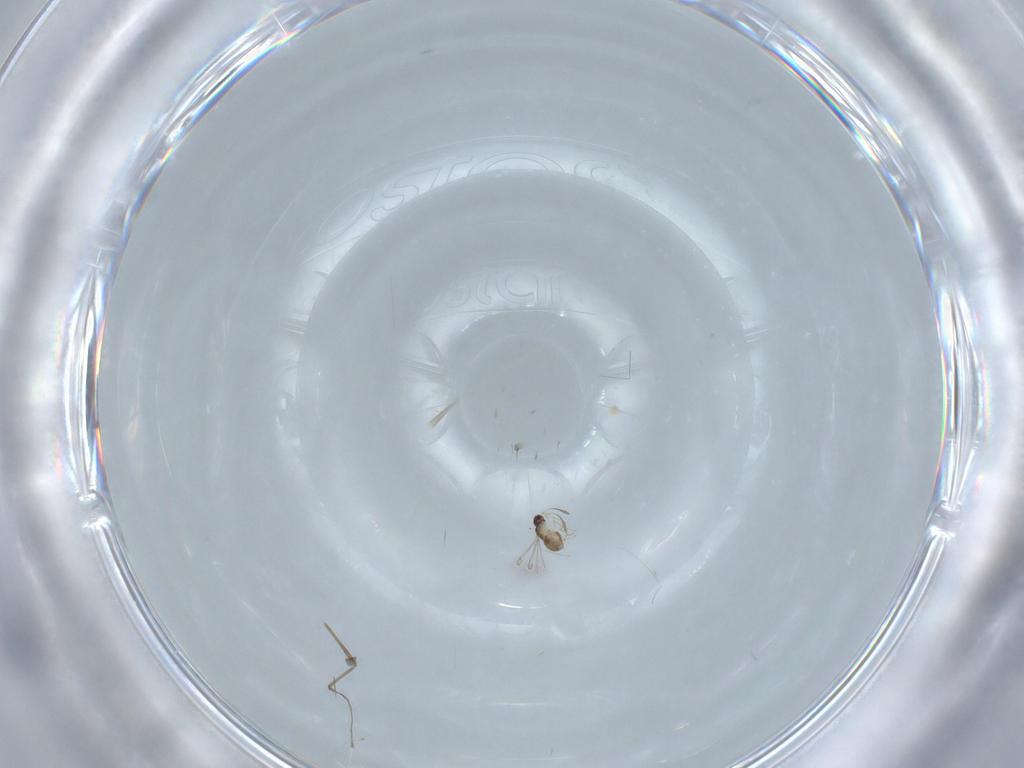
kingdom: Animalia
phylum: Arthropoda
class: Insecta
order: Hymenoptera
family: Mymaridae
